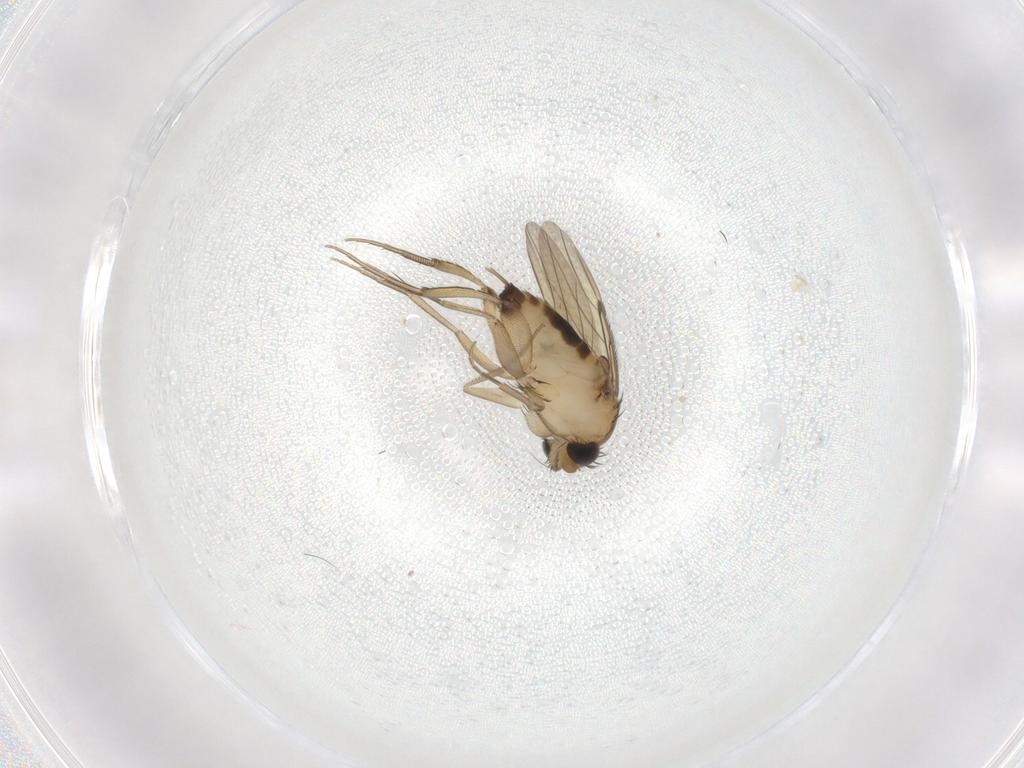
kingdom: Animalia
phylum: Arthropoda
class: Insecta
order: Diptera
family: Phoridae
